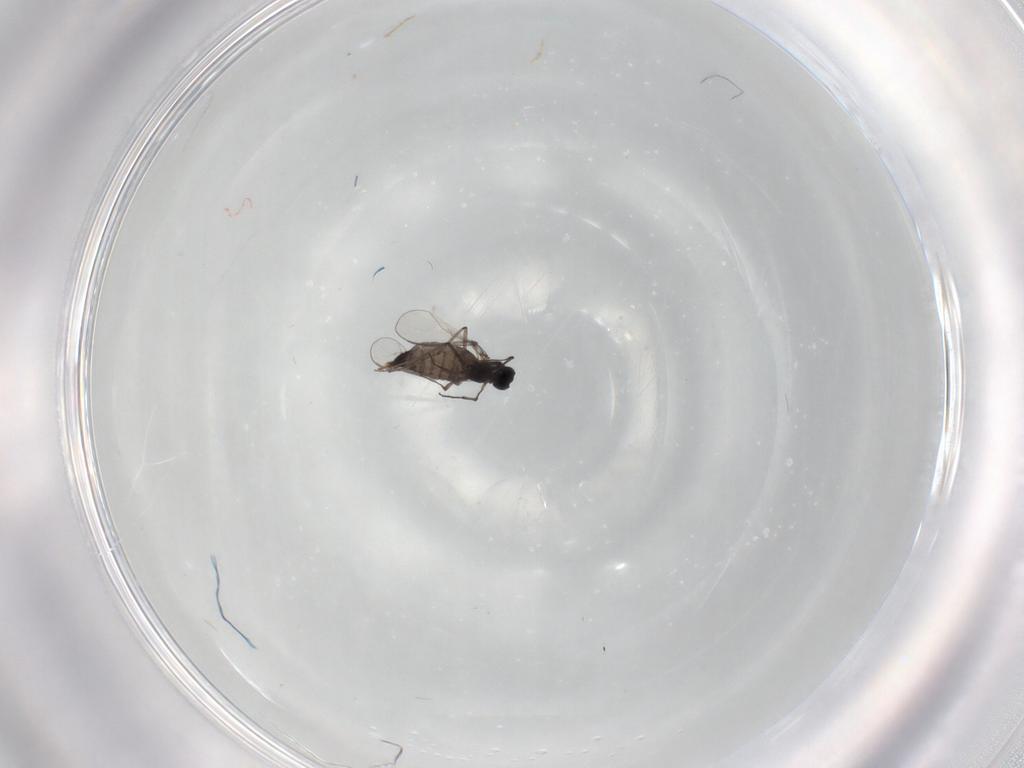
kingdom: Animalia
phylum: Arthropoda
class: Insecta
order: Diptera
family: Chironomidae
